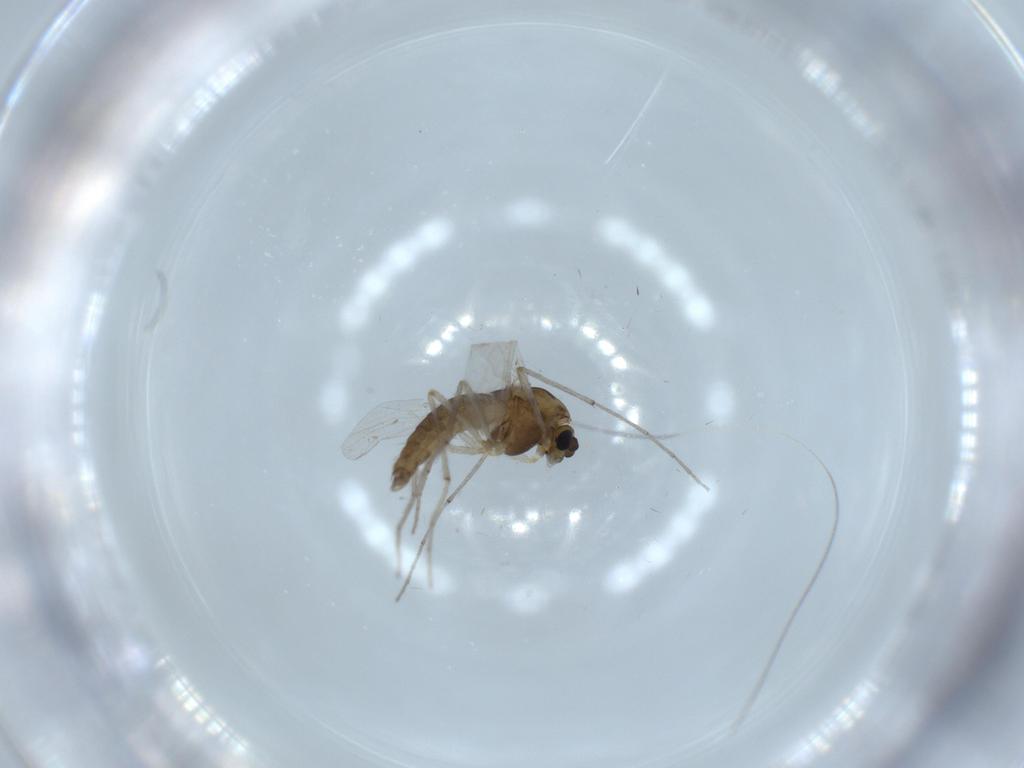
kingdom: Animalia
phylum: Arthropoda
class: Insecta
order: Diptera
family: Chironomidae
